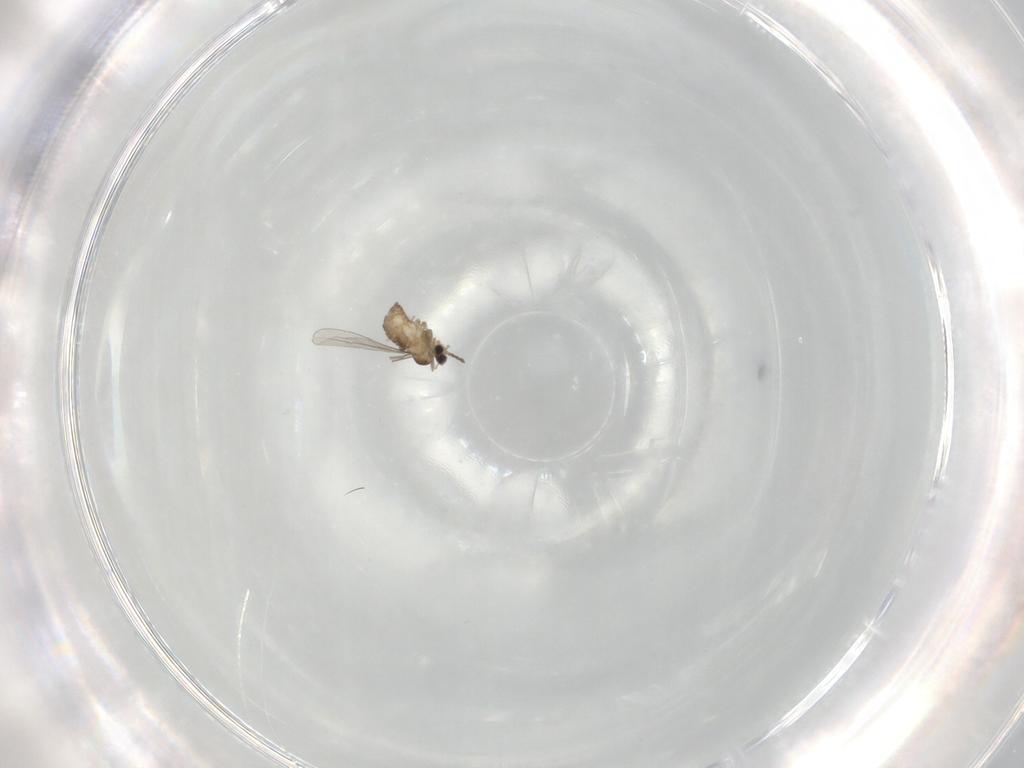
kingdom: Animalia
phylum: Arthropoda
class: Insecta
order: Diptera
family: Cecidomyiidae
